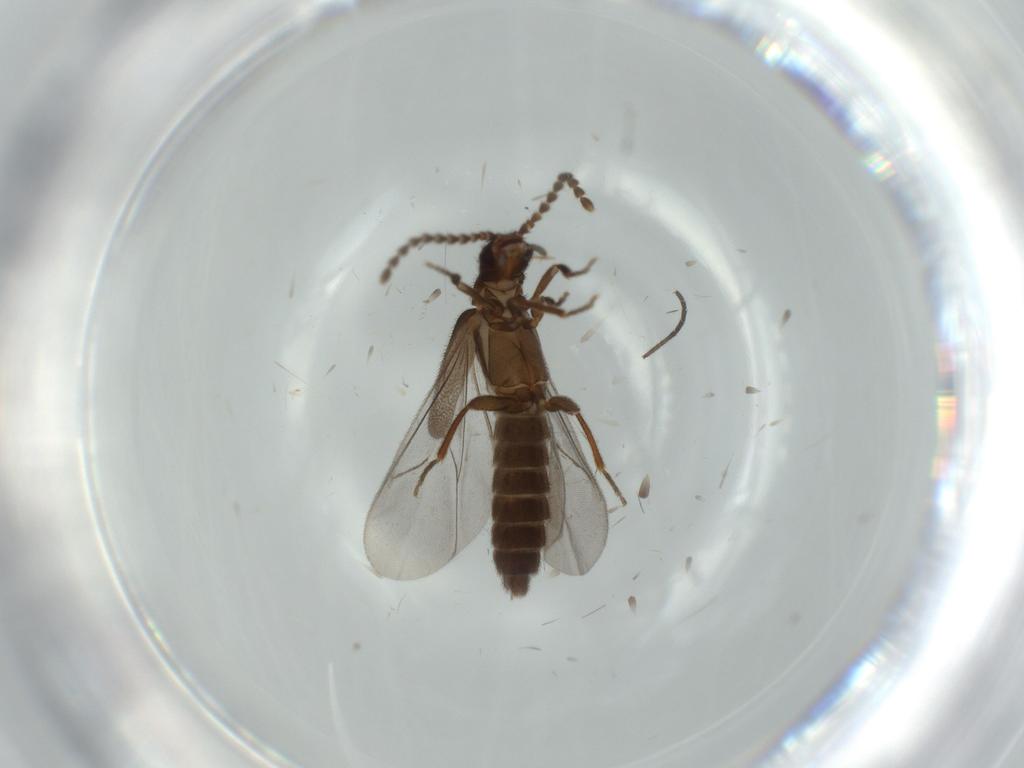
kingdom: Animalia
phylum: Arthropoda
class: Insecta
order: Coleoptera
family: Omethidae
